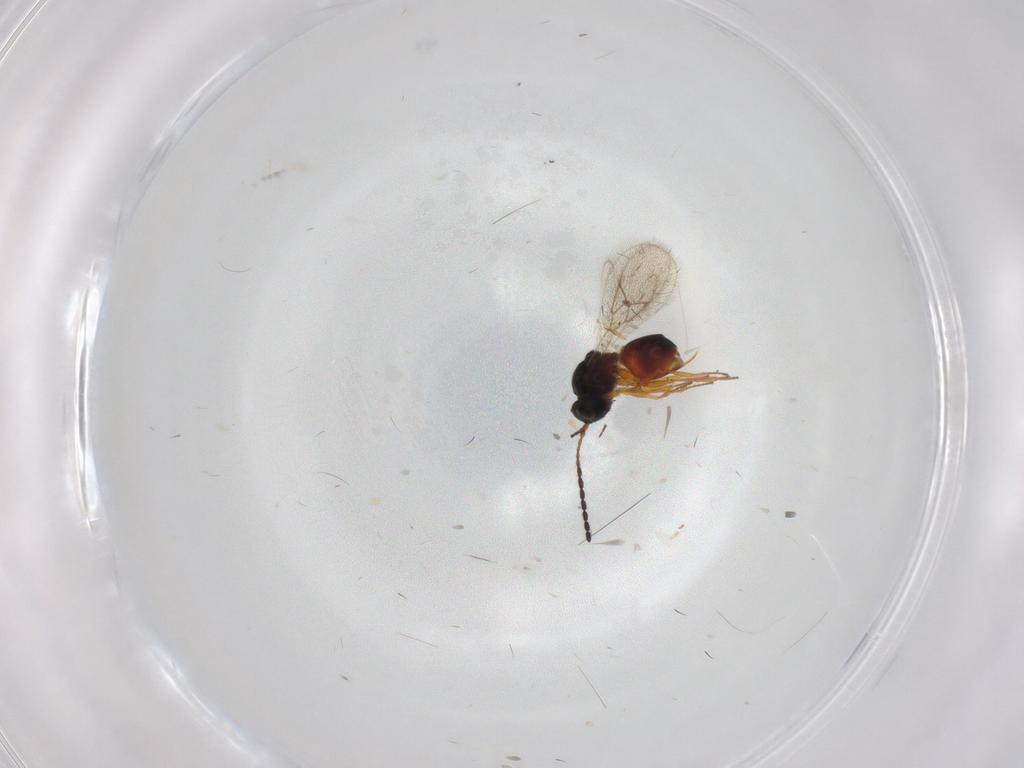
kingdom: Animalia
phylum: Arthropoda
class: Insecta
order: Hymenoptera
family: Figitidae
